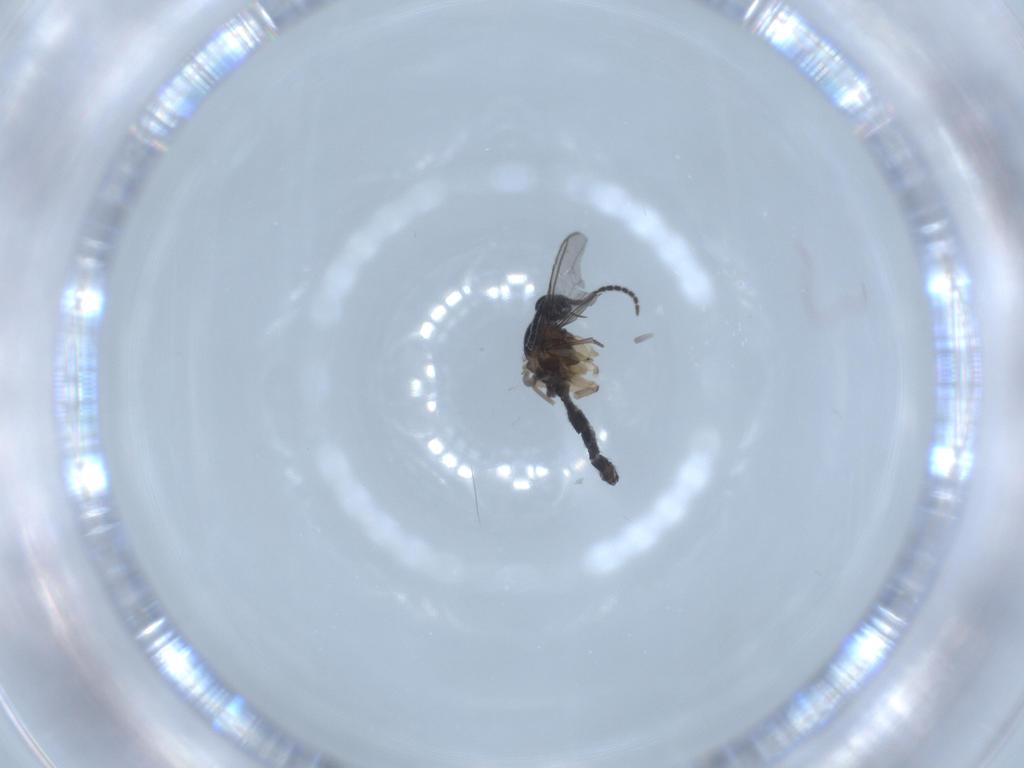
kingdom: Animalia
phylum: Arthropoda
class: Insecta
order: Diptera
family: Sciaridae
